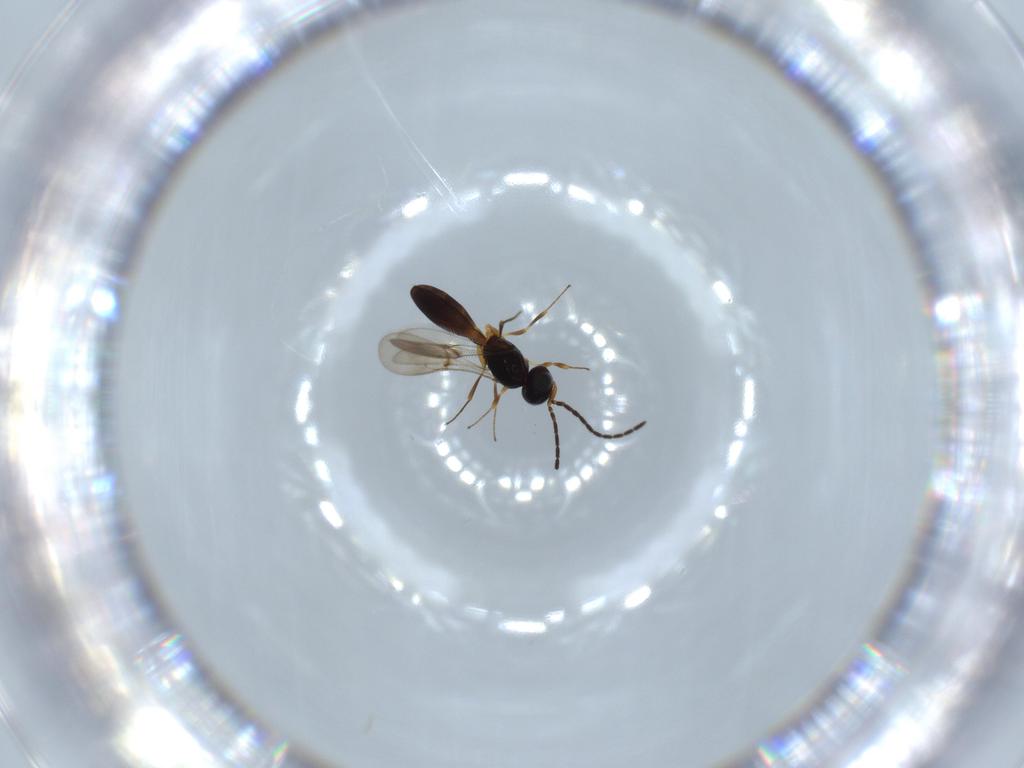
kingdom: Animalia
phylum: Arthropoda
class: Insecta
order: Hymenoptera
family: Scelionidae
